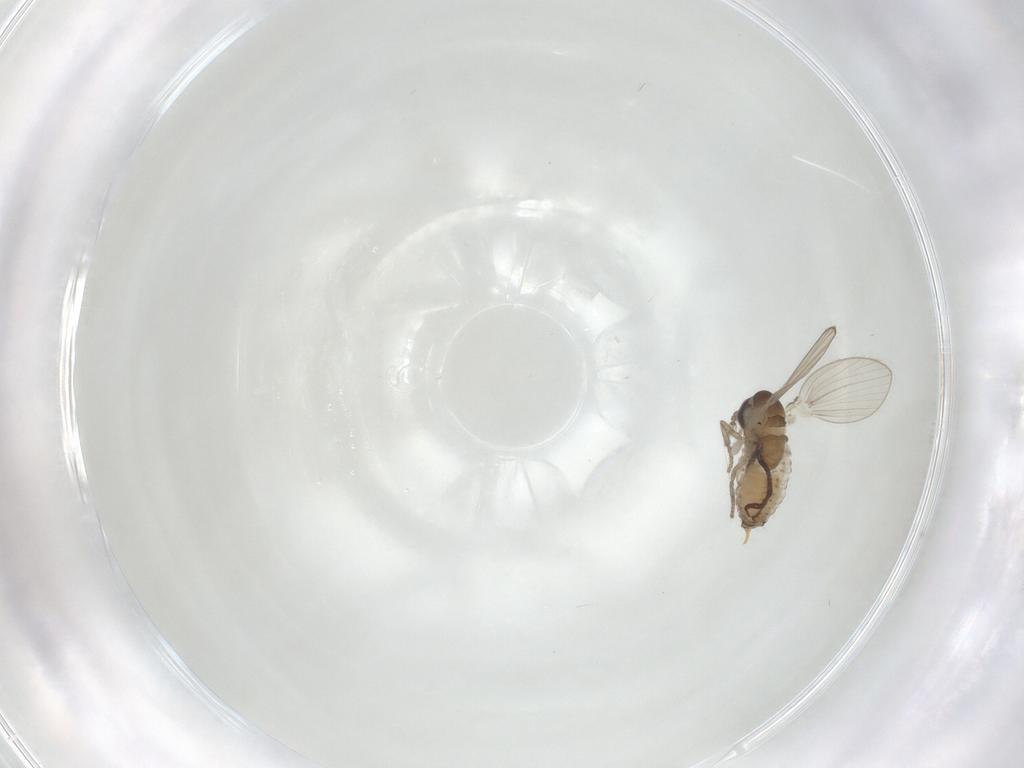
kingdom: Animalia
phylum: Arthropoda
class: Insecta
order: Diptera
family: Psychodidae
